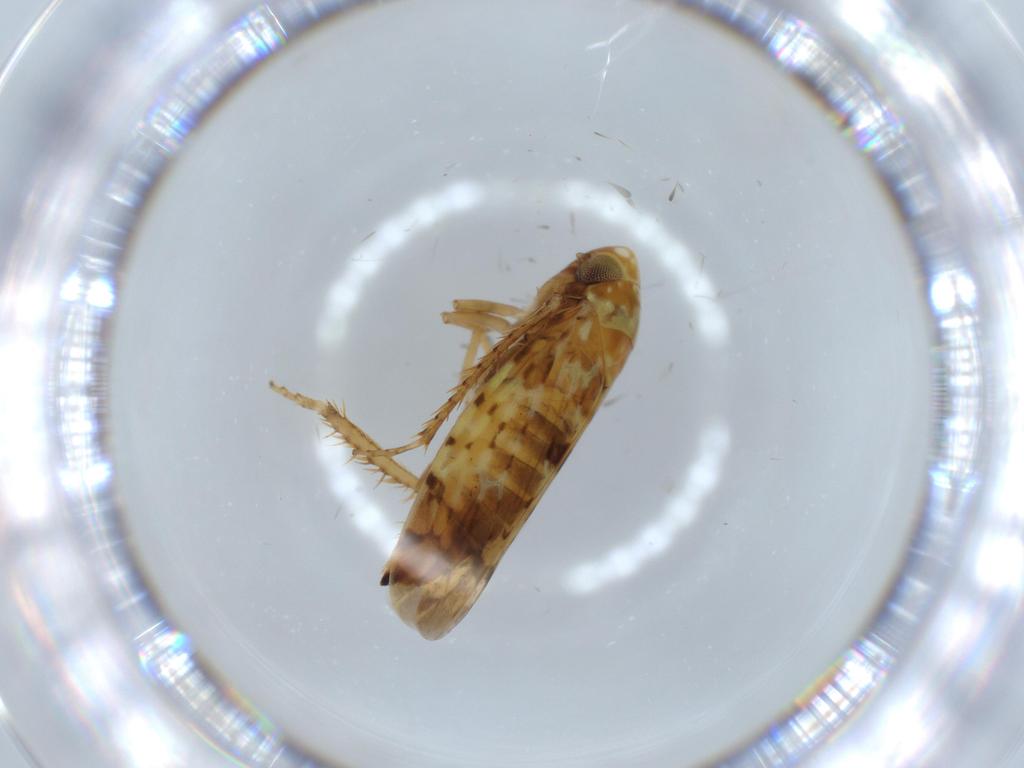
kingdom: Animalia
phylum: Arthropoda
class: Insecta
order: Hemiptera
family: Cicadellidae
